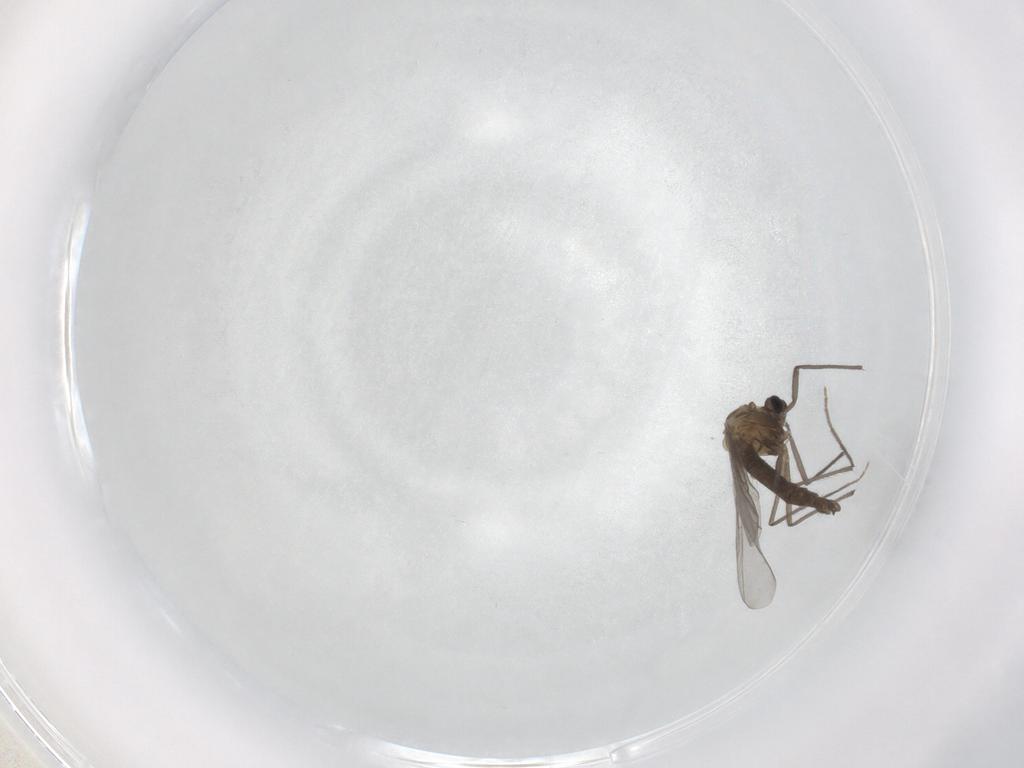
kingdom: Animalia
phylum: Arthropoda
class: Insecta
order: Diptera
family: Chironomidae
